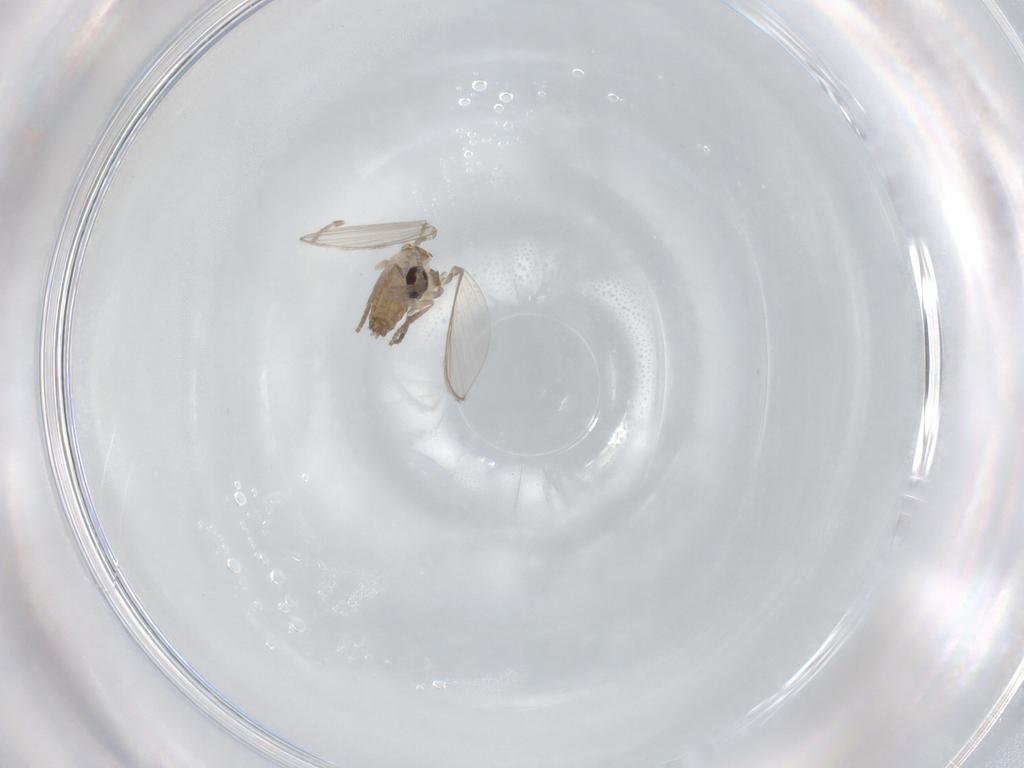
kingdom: Animalia
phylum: Arthropoda
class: Insecta
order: Diptera
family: Psychodidae
